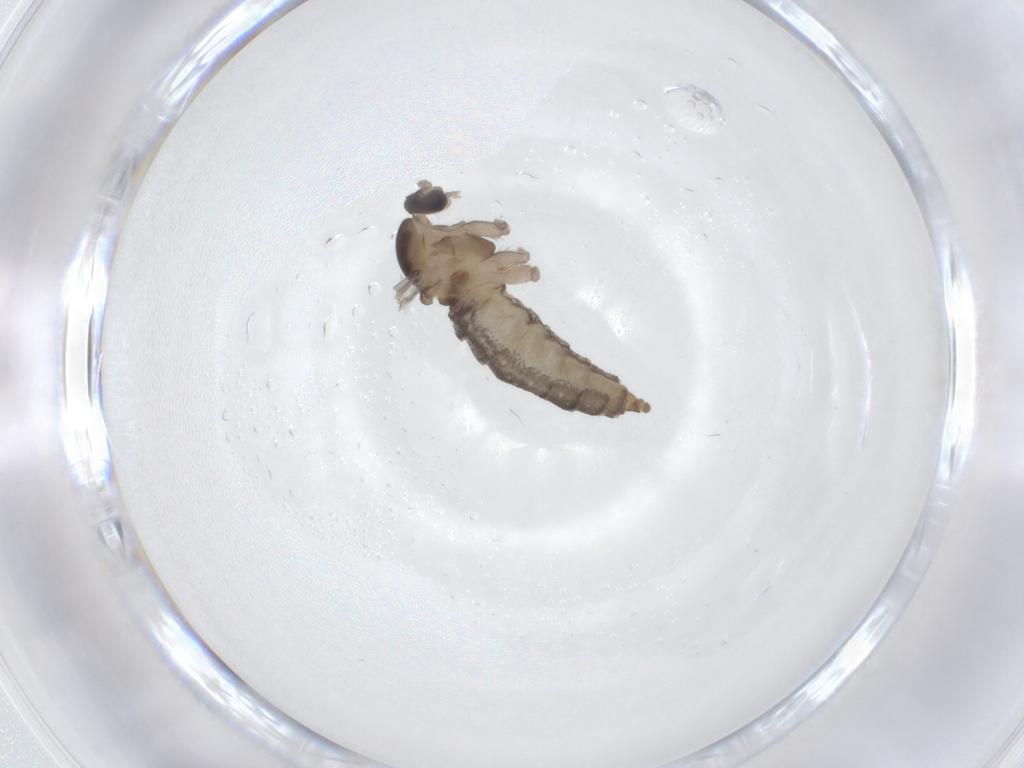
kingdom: Animalia
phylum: Arthropoda
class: Insecta
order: Diptera
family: Cecidomyiidae
